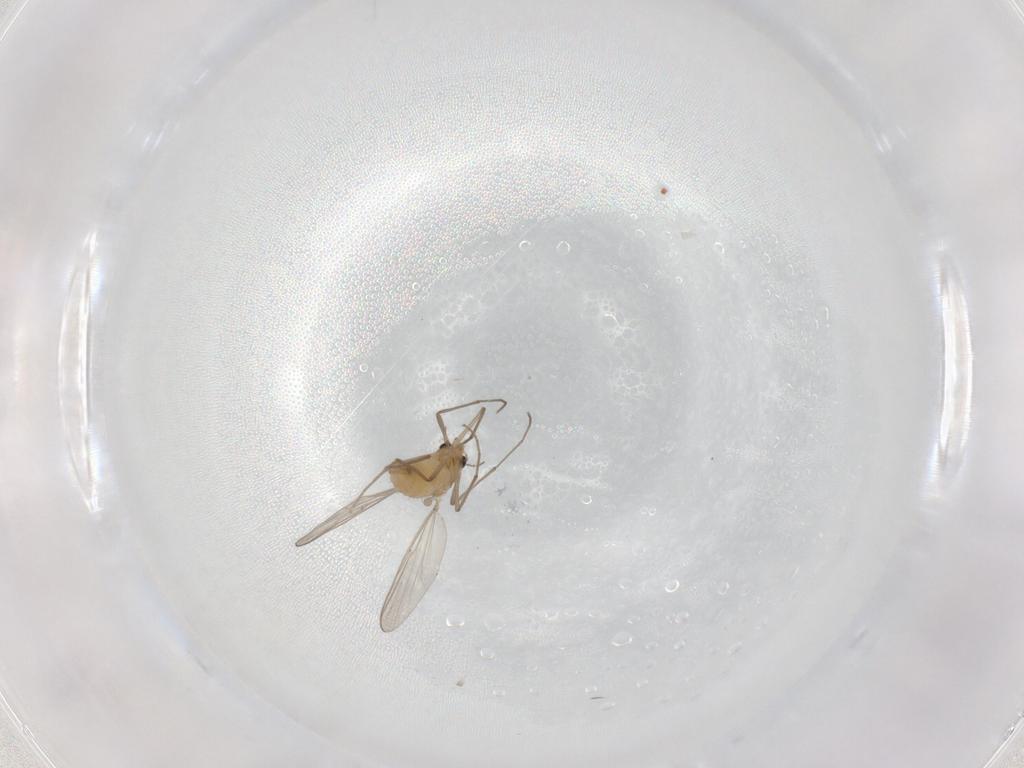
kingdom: Animalia
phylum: Arthropoda
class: Insecta
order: Diptera
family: Chironomidae
